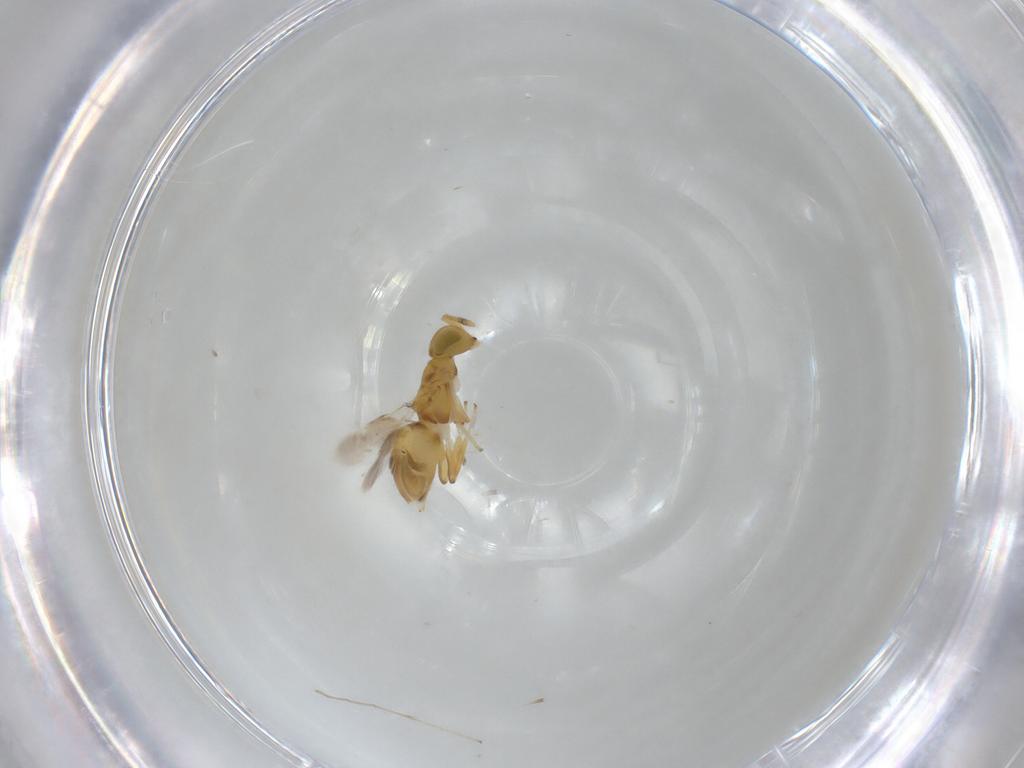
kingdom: Animalia
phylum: Arthropoda
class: Insecta
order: Hymenoptera
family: Encyrtidae
